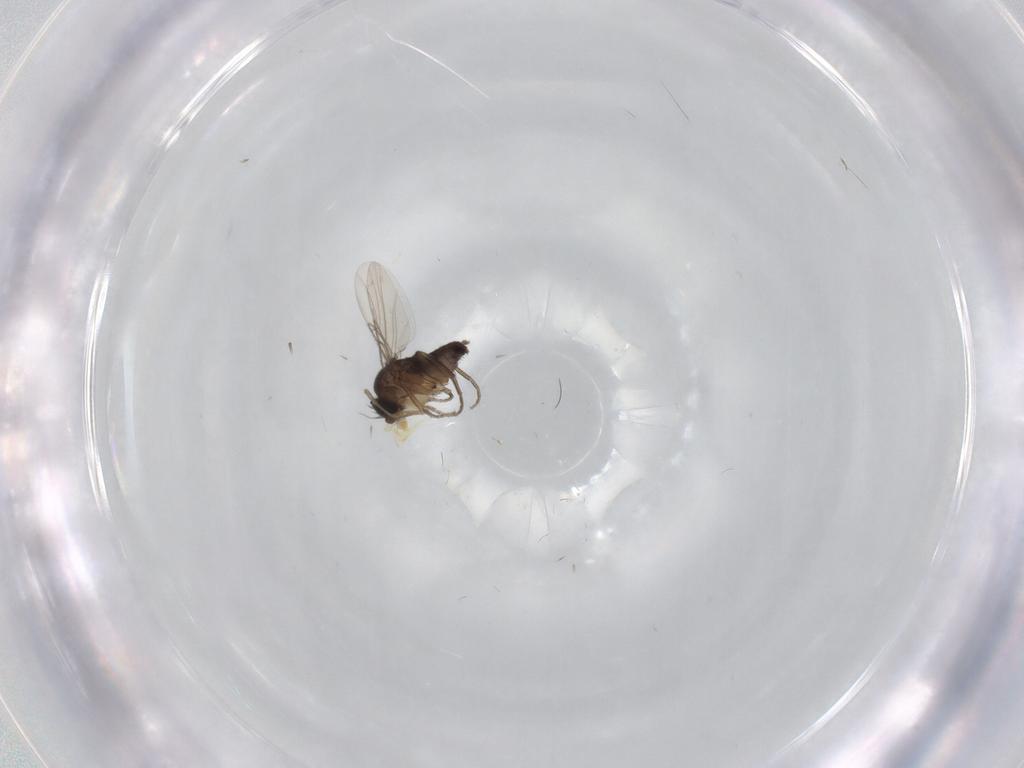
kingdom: Animalia
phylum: Arthropoda
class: Insecta
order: Diptera
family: Phoridae
